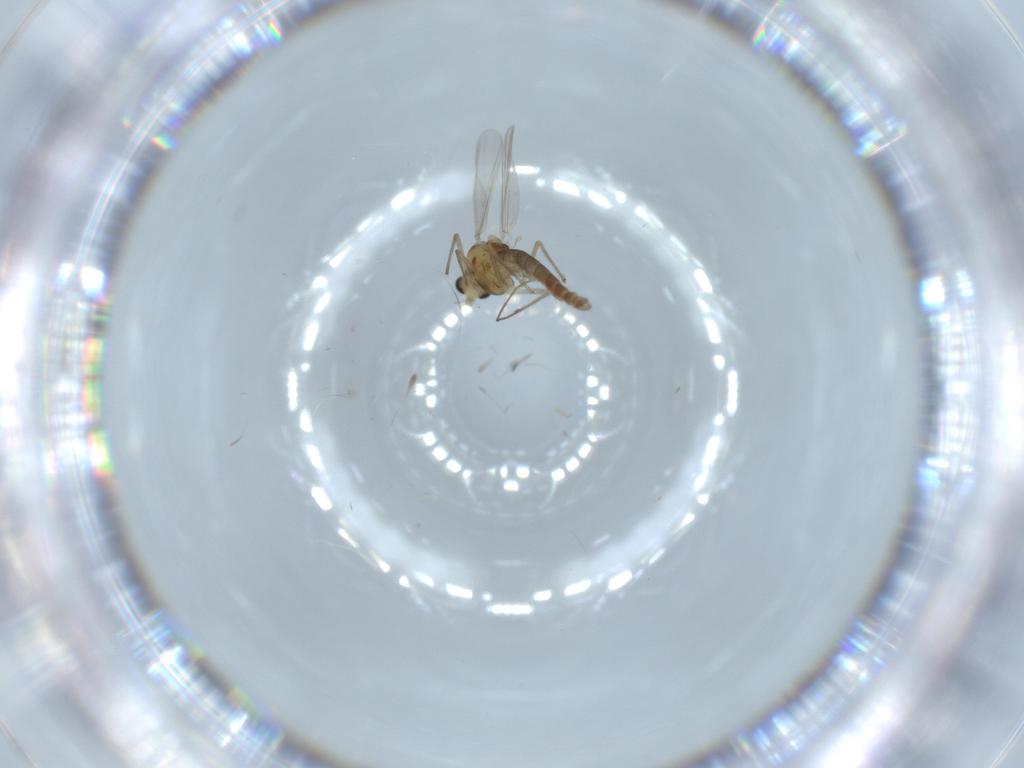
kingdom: Animalia
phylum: Arthropoda
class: Insecta
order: Diptera
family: Chironomidae
